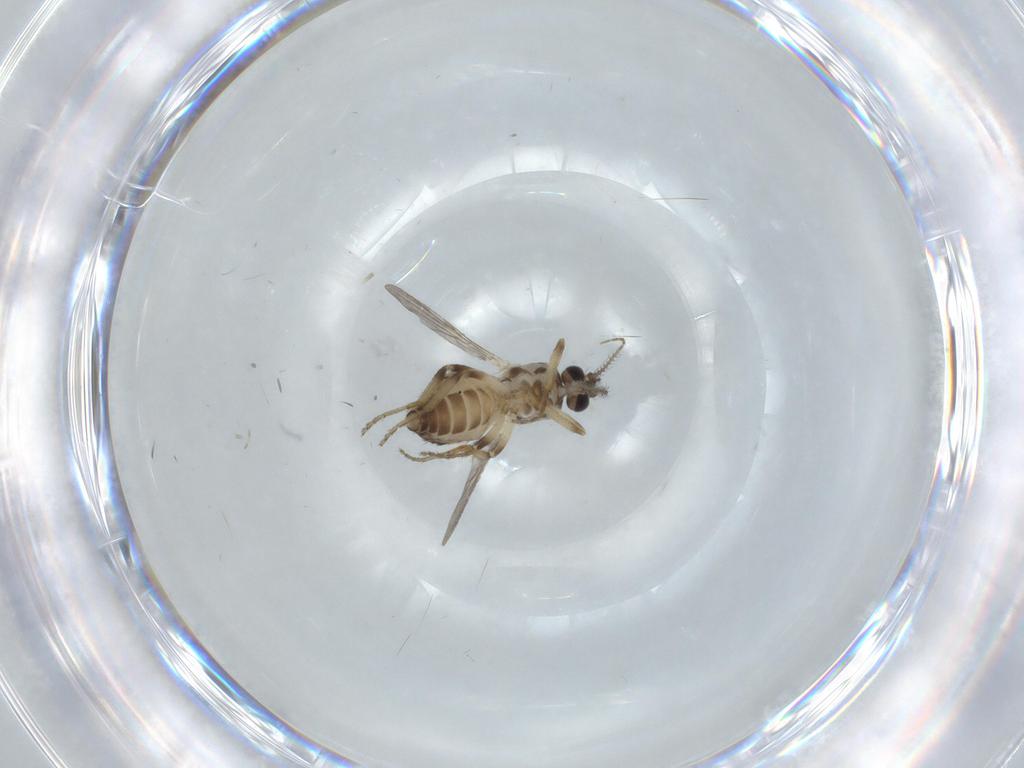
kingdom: Animalia
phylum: Arthropoda
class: Insecta
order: Diptera
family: Ceratopogonidae
